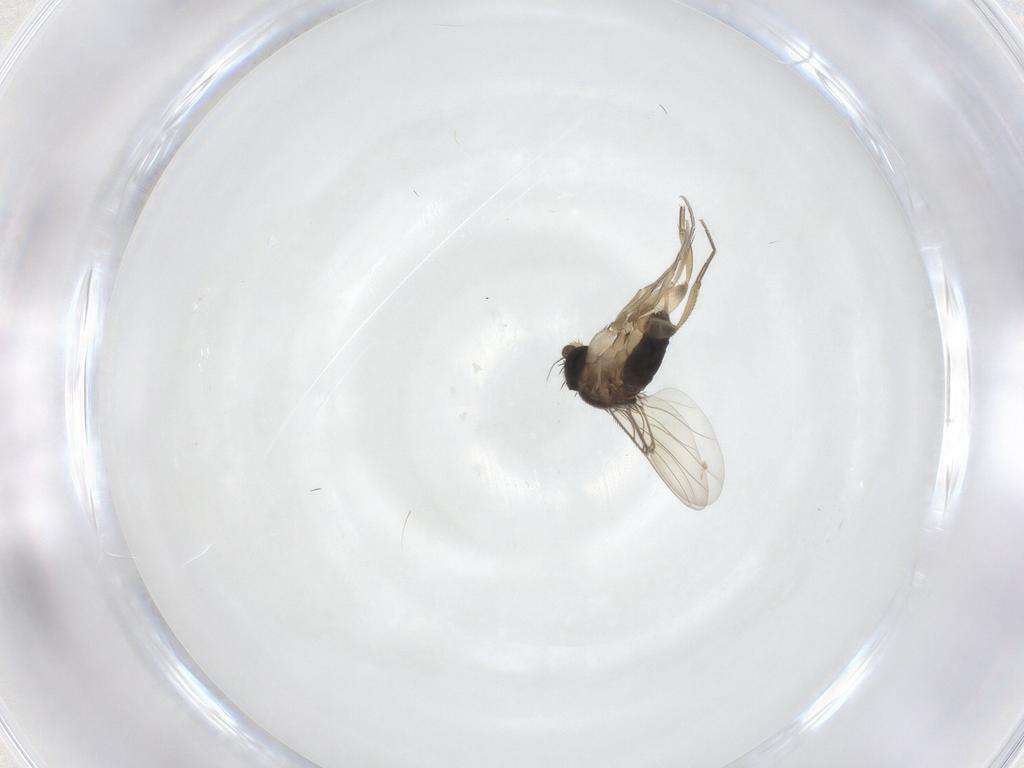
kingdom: Animalia
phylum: Arthropoda
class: Insecta
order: Diptera
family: Phoridae
